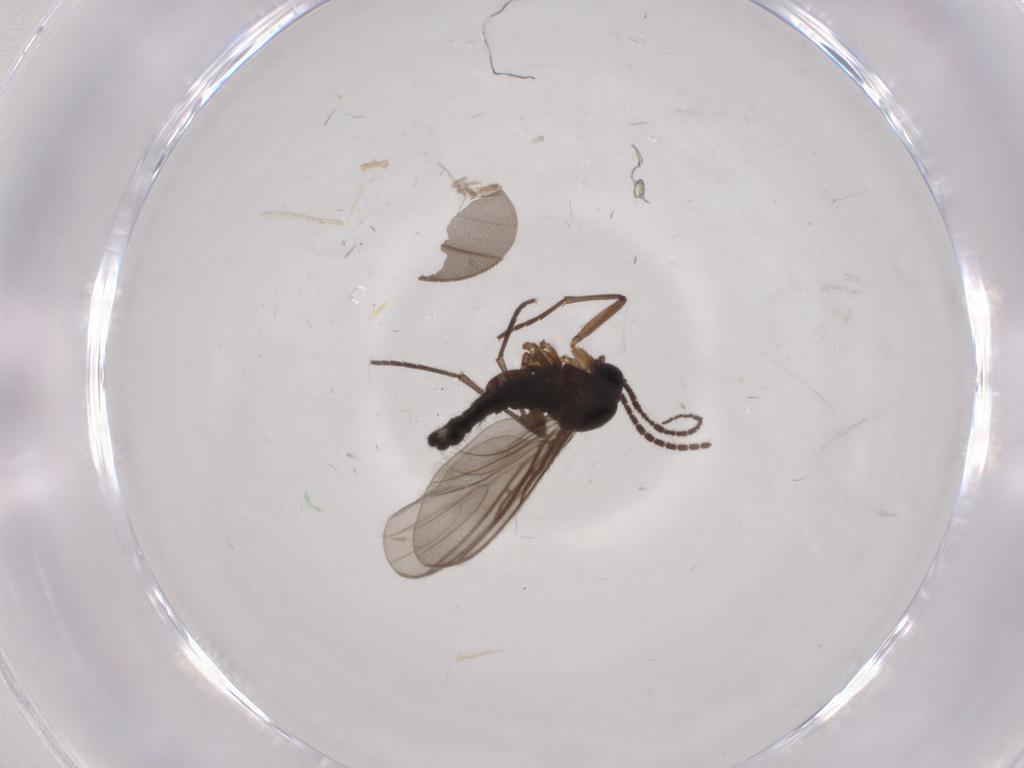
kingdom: Animalia
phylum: Arthropoda
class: Insecta
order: Diptera
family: Sciaridae
